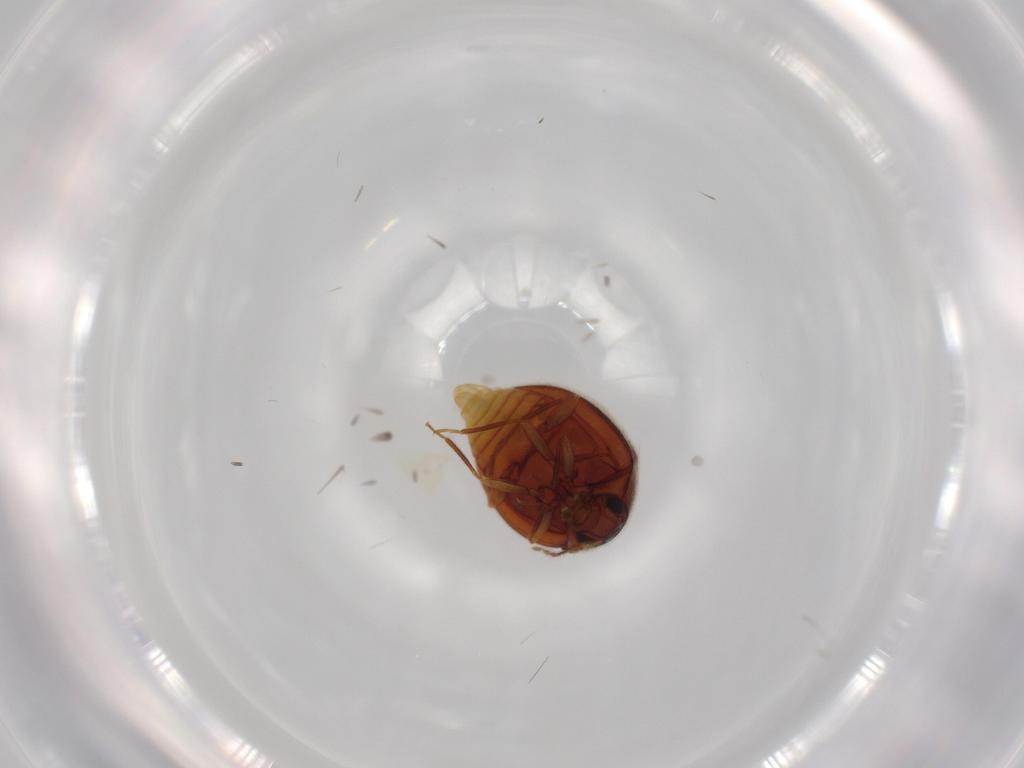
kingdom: Animalia
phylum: Arthropoda
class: Insecta
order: Coleoptera
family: Anamorphidae
